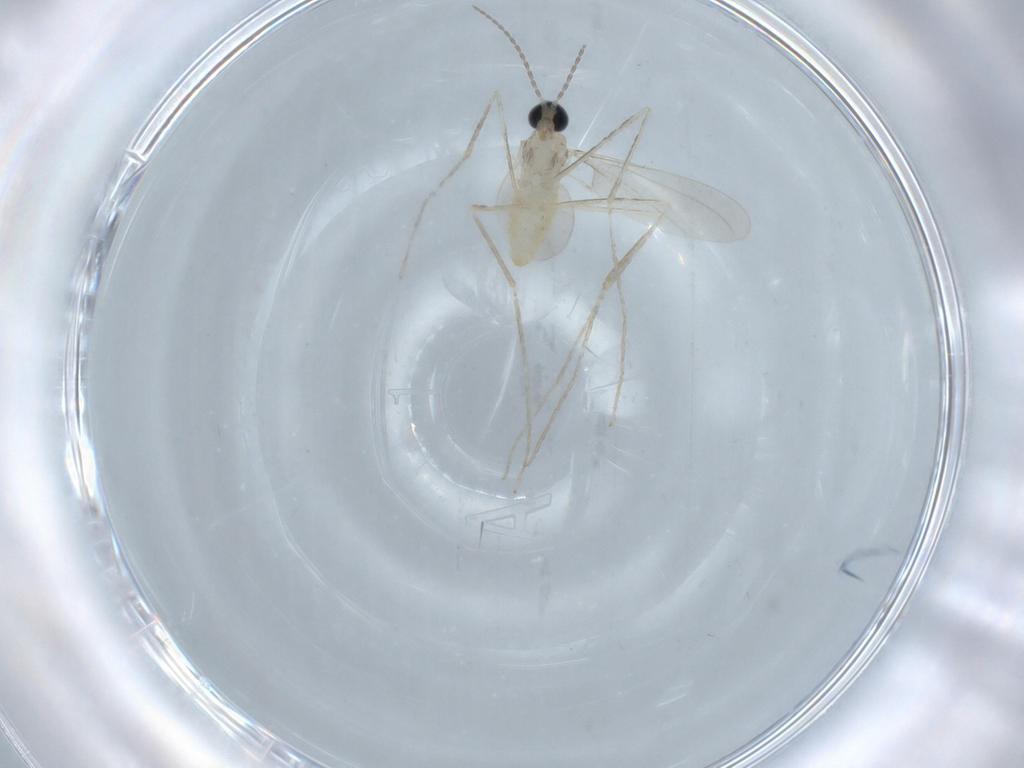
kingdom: Animalia
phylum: Arthropoda
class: Insecta
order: Diptera
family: Cecidomyiidae
